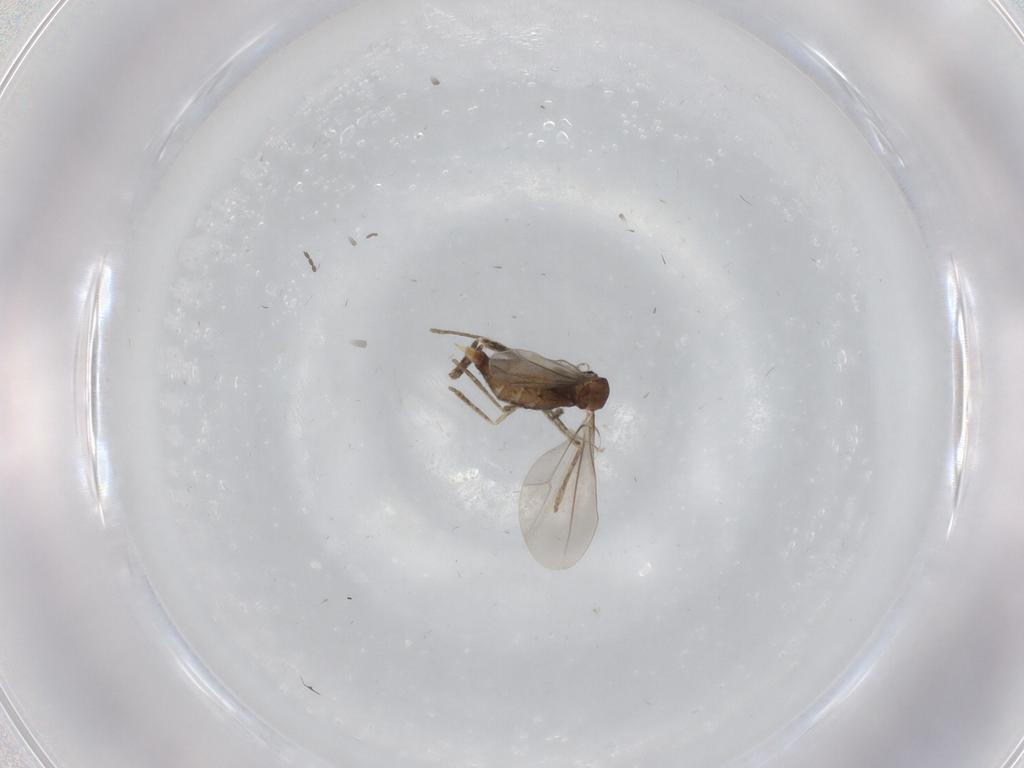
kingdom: Animalia
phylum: Arthropoda
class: Insecta
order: Diptera
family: Cecidomyiidae
